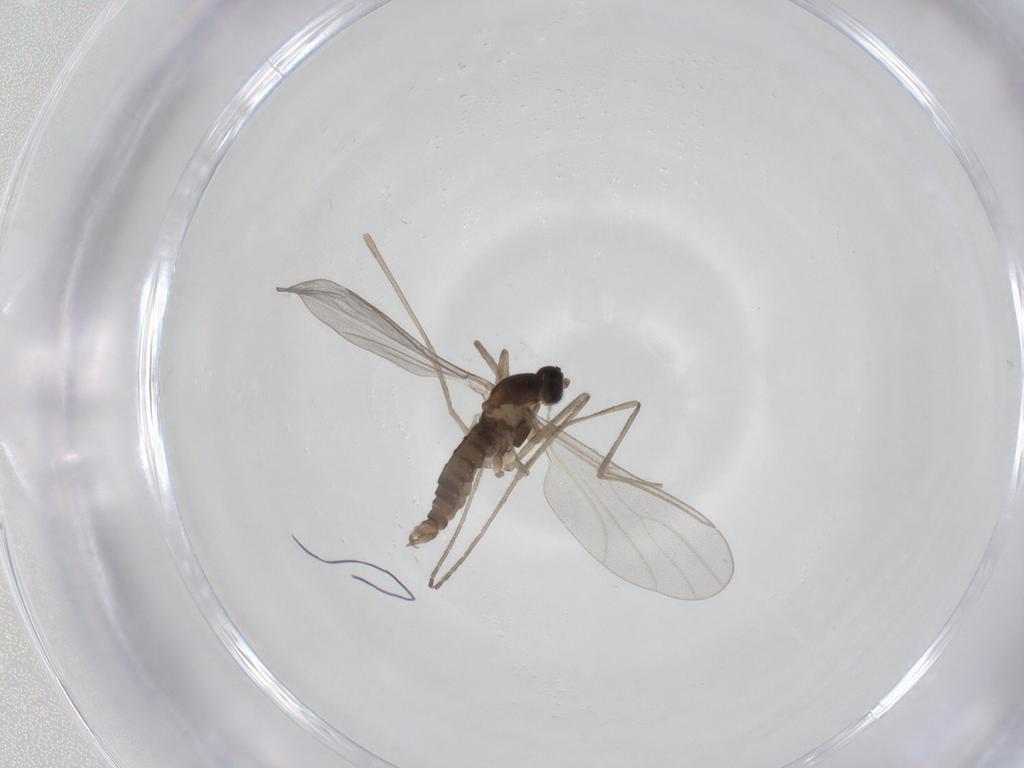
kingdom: Animalia
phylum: Arthropoda
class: Insecta
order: Diptera
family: Cecidomyiidae
